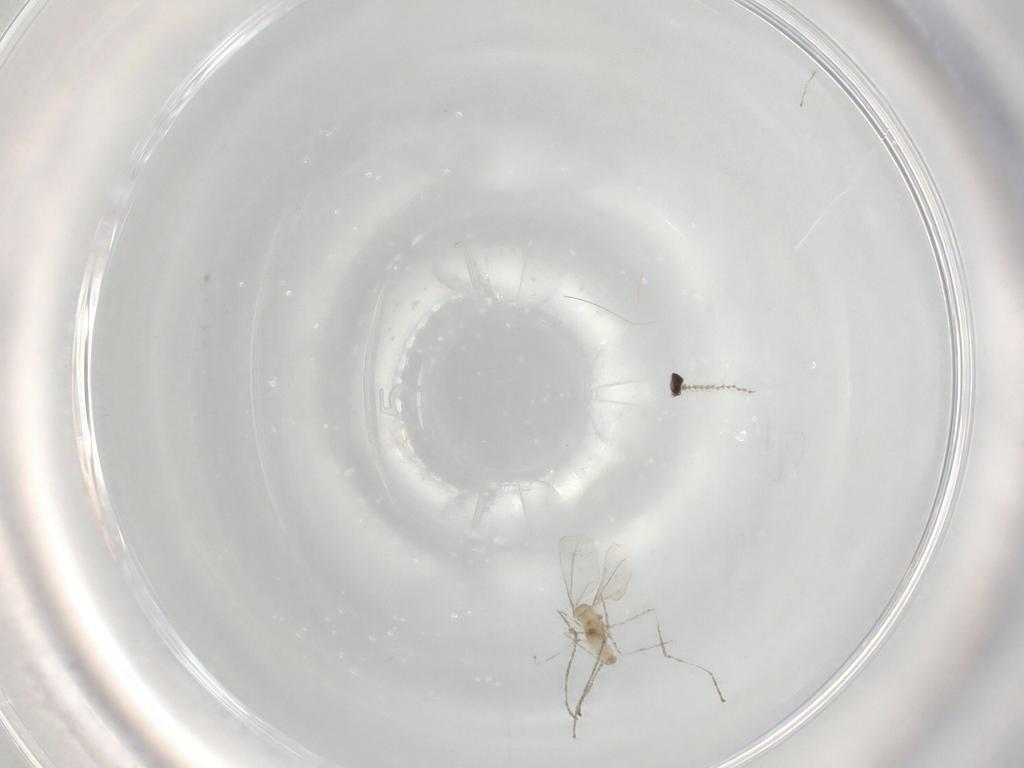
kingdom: Animalia
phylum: Arthropoda
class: Insecta
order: Diptera
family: Cecidomyiidae
